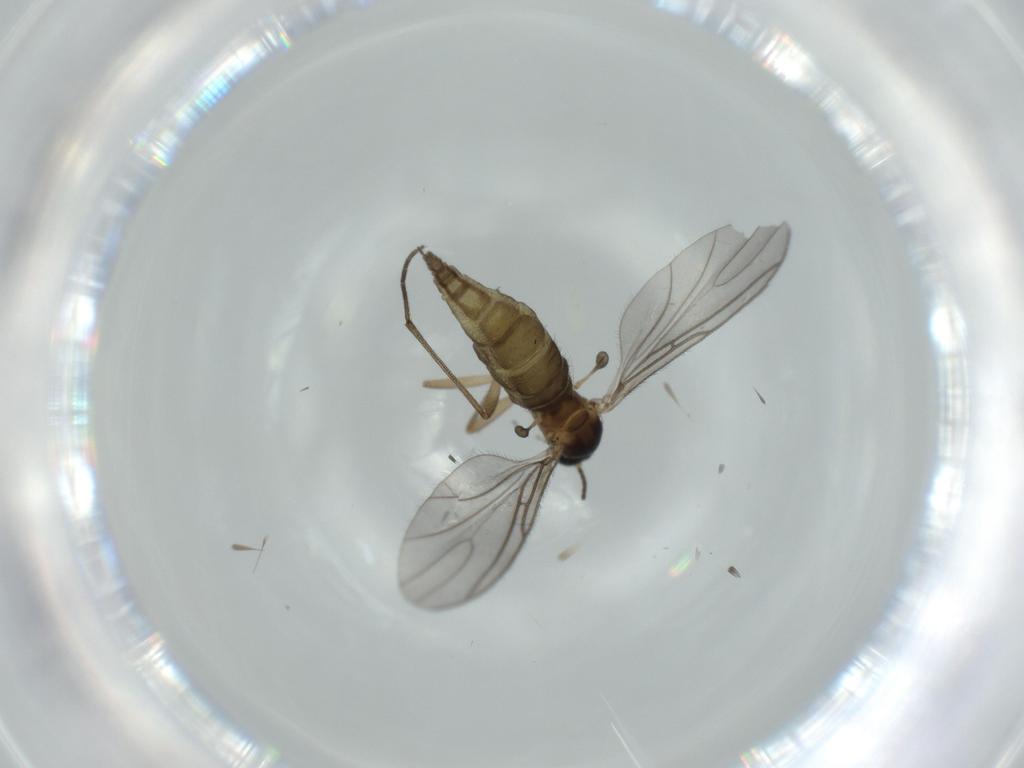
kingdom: Animalia
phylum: Arthropoda
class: Insecta
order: Diptera
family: Sciaridae
